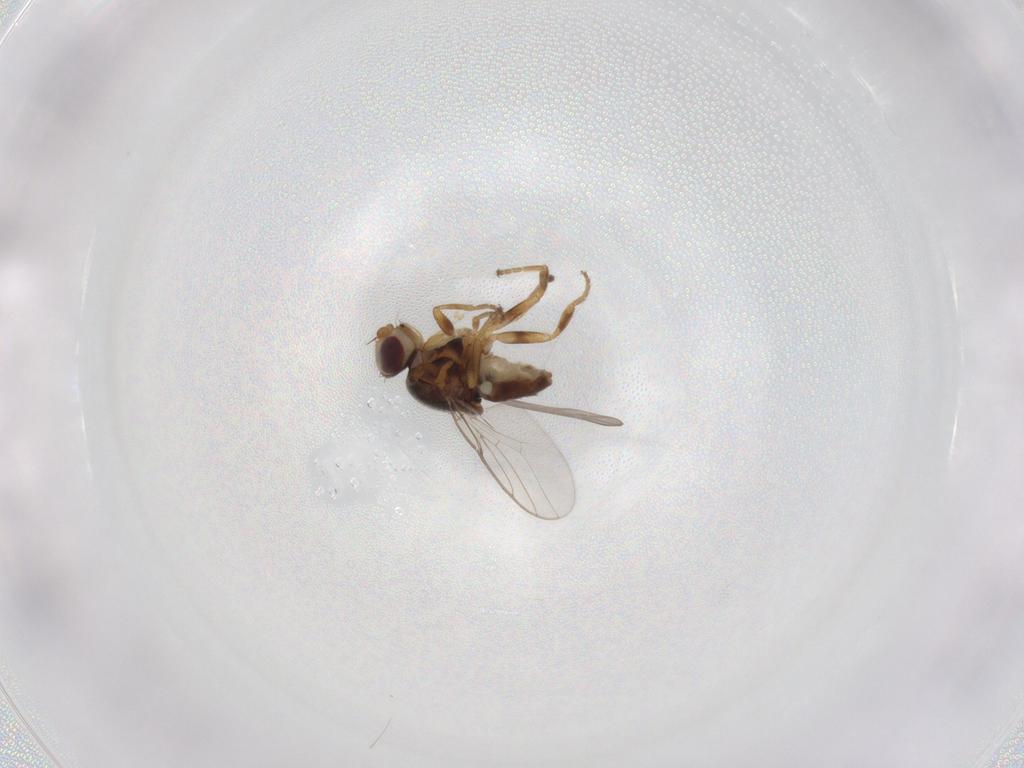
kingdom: Animalia
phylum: Arthropoda
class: Insecta
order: Diptera
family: Chloropidae
